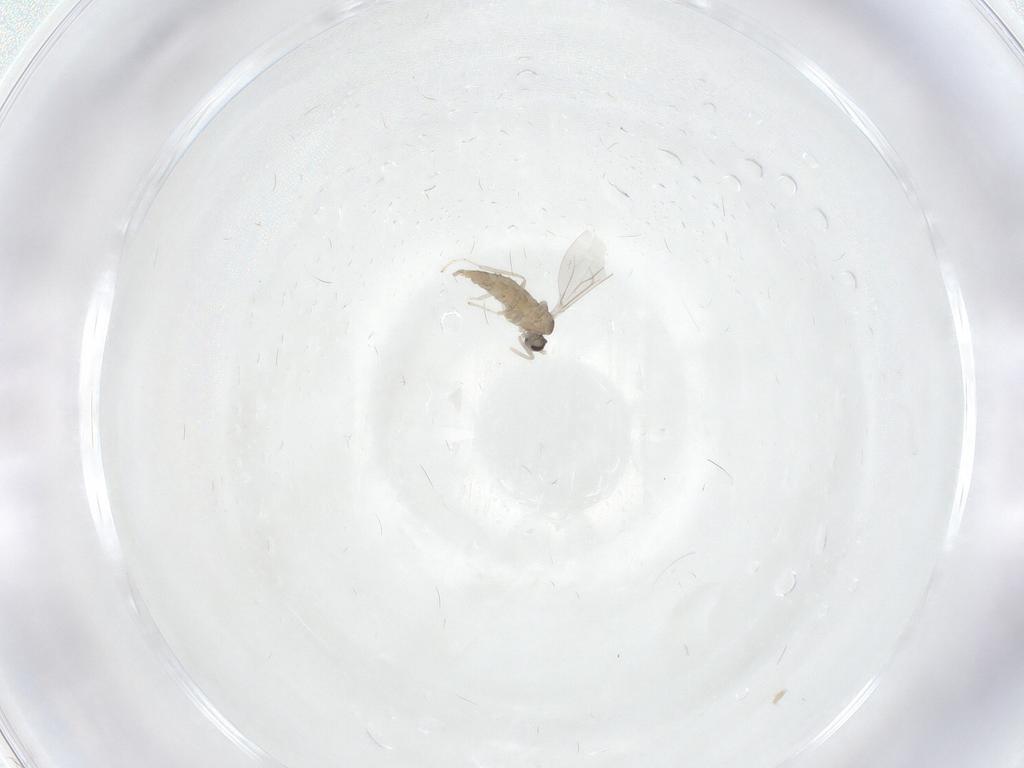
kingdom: Animalia
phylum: Arthropoda
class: Insecta
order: Diptera
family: Cecidomyiidae
